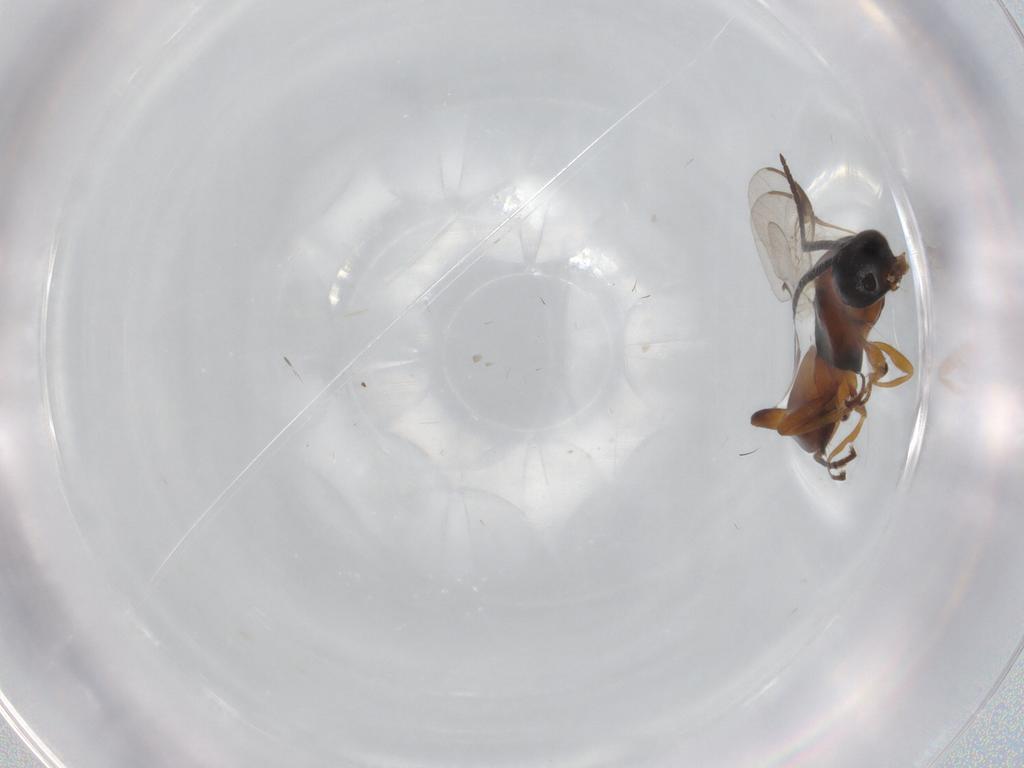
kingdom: Animalia
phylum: Arthropoda
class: Insecta
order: Hymenoptera
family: Braconidae
